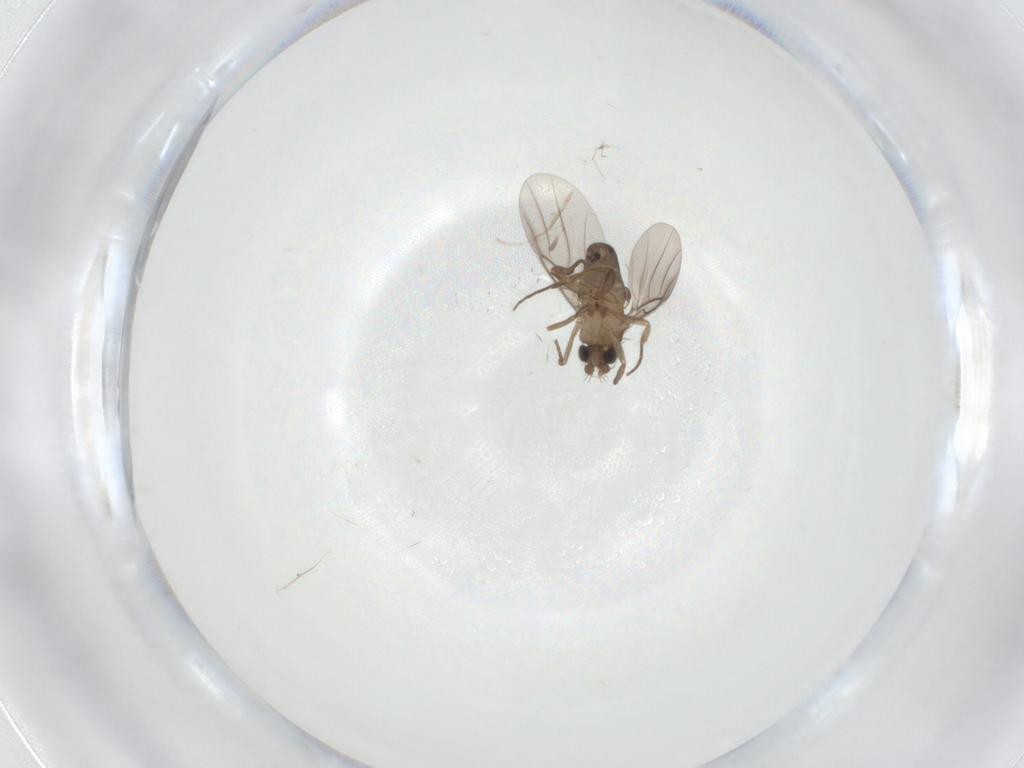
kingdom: Animalia
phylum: Arthropoda
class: Insecta
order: Diptera
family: Cecidomyiidae
